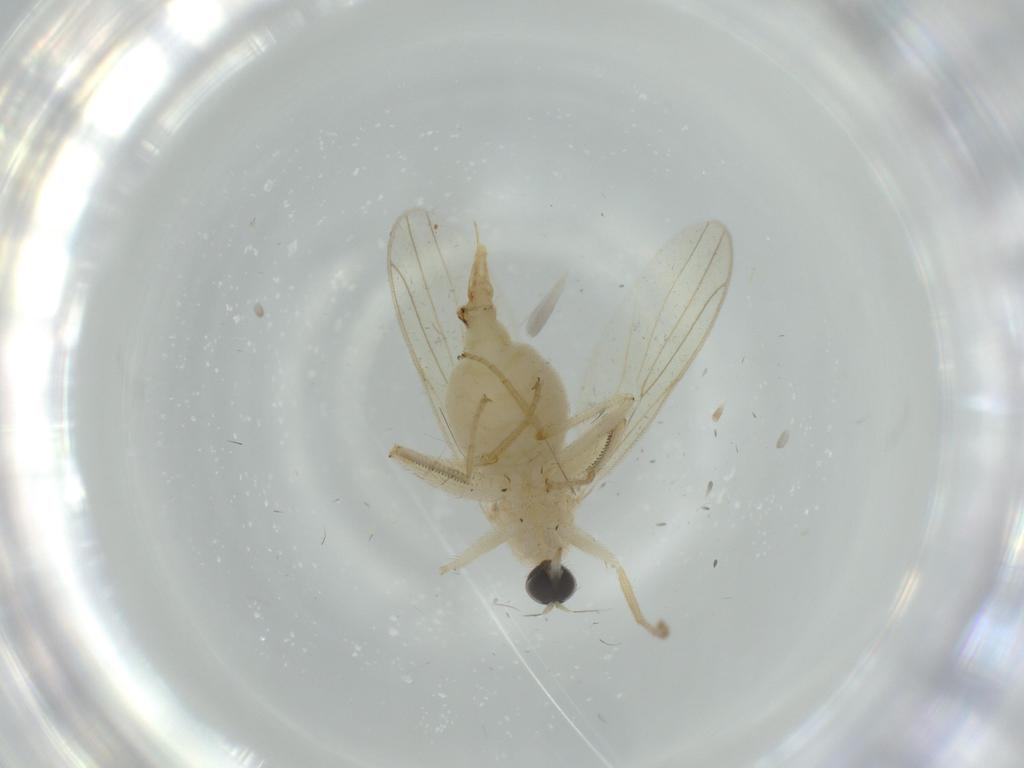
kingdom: Animalia
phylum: Arthropoda
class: Insecta
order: Diptera
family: Hybotidae
